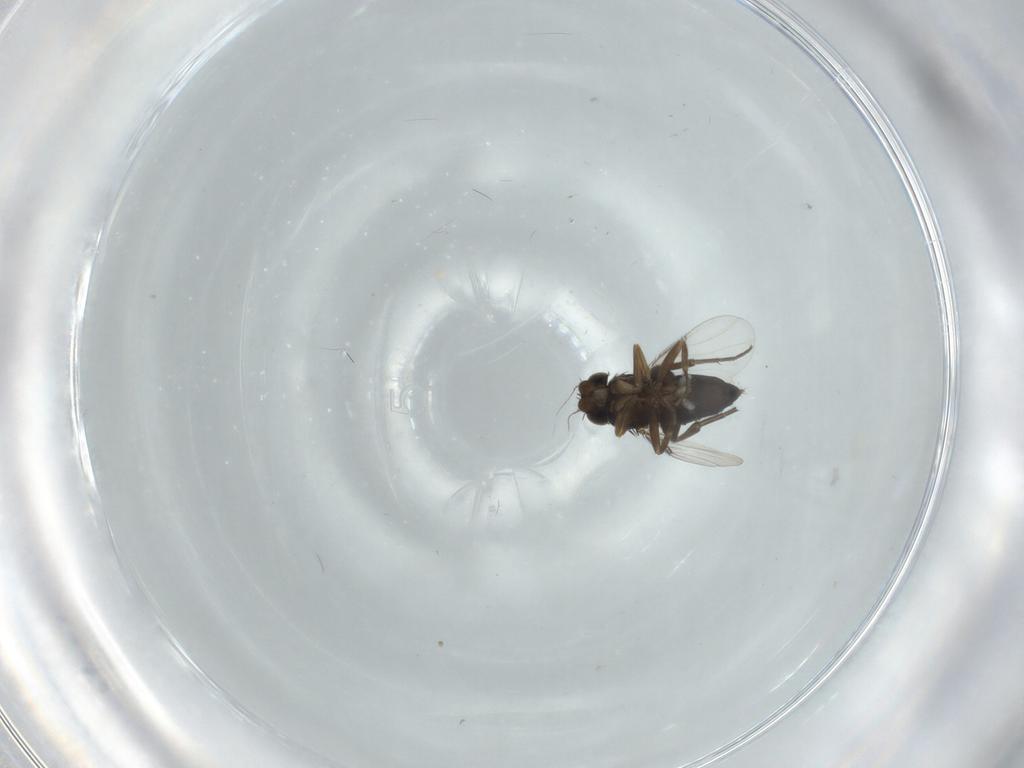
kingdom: Animalia
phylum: Arthropoda
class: Insecta
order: Diptera
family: Phoridae
